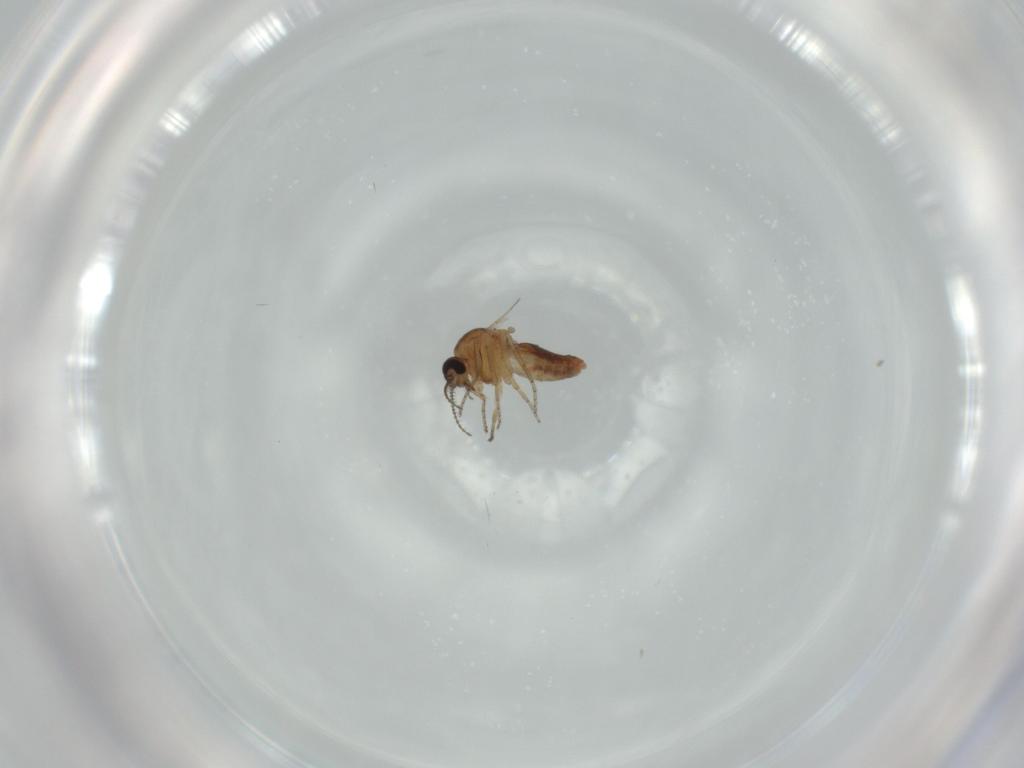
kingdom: Animalia
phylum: Arthropoda
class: Insecta
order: Diptera
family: Ceratopogonidae
